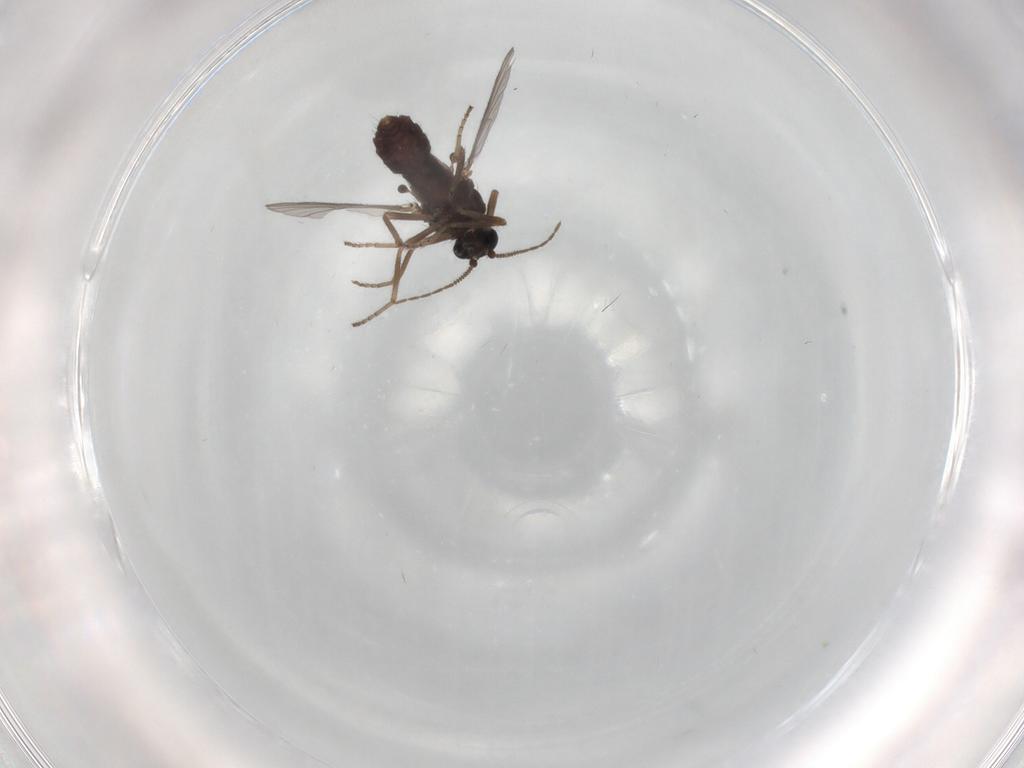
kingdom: Animalia
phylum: Arthropoda
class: Insecta
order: Diptera
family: Ceratopogonidae
